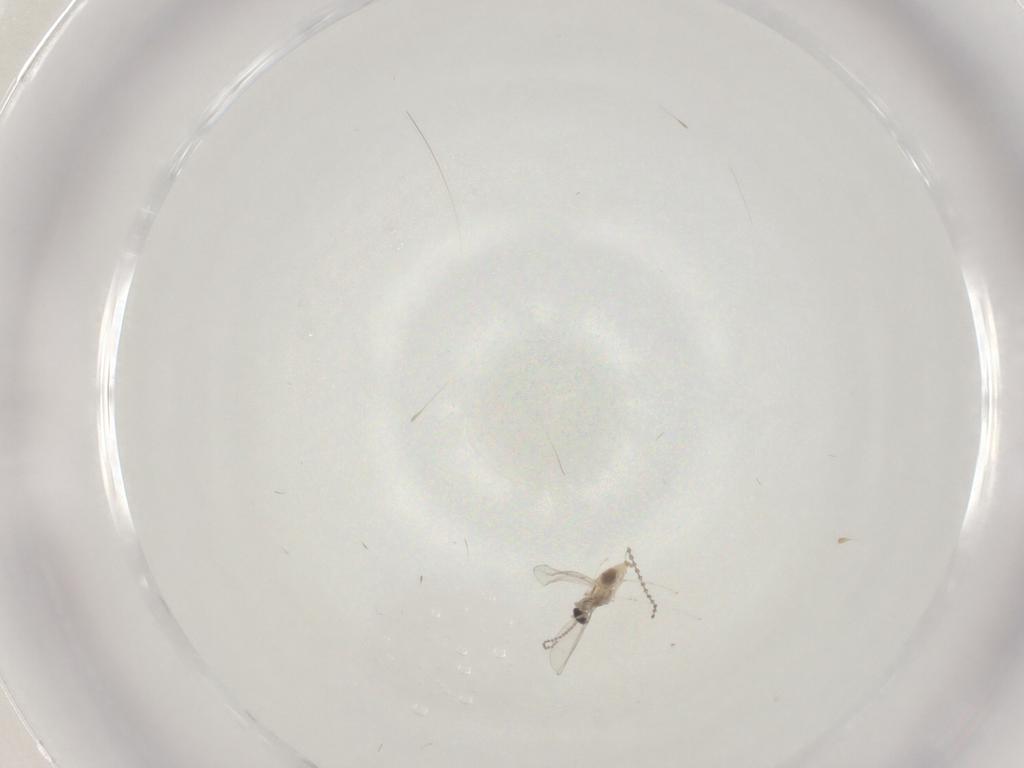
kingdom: Animalia
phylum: Arthropoda
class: Insecta
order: Diptera
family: Cecidomyiidae
